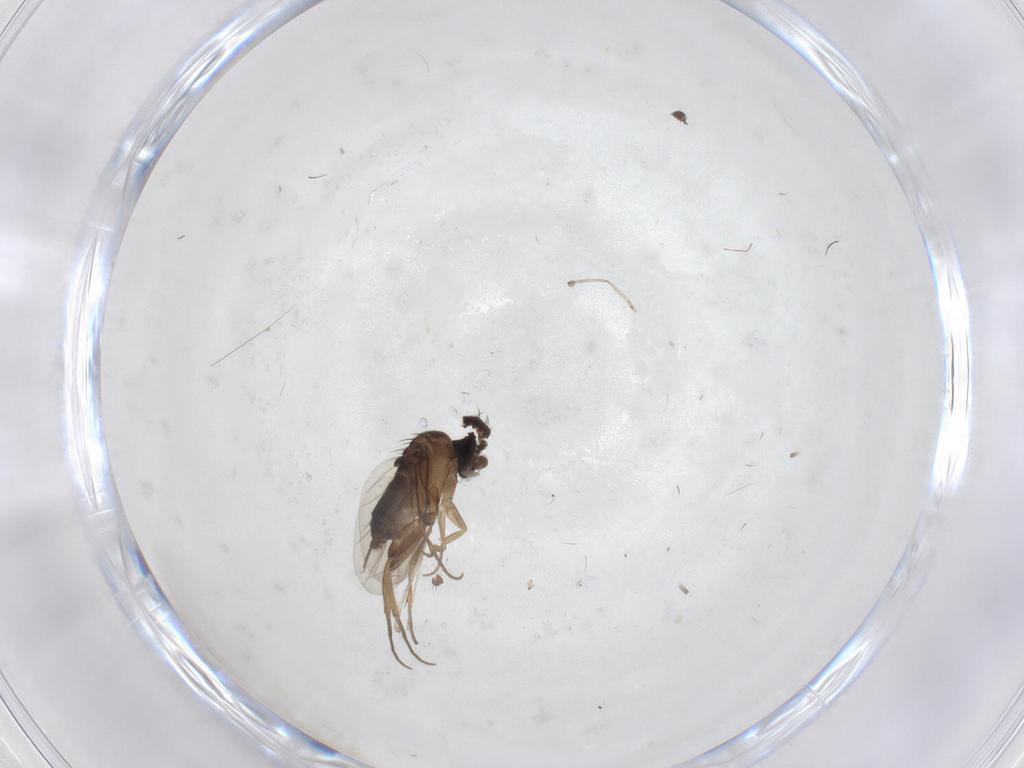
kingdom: Animalia
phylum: Arthropoda
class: Insecta
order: Diptera
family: Phoridae
